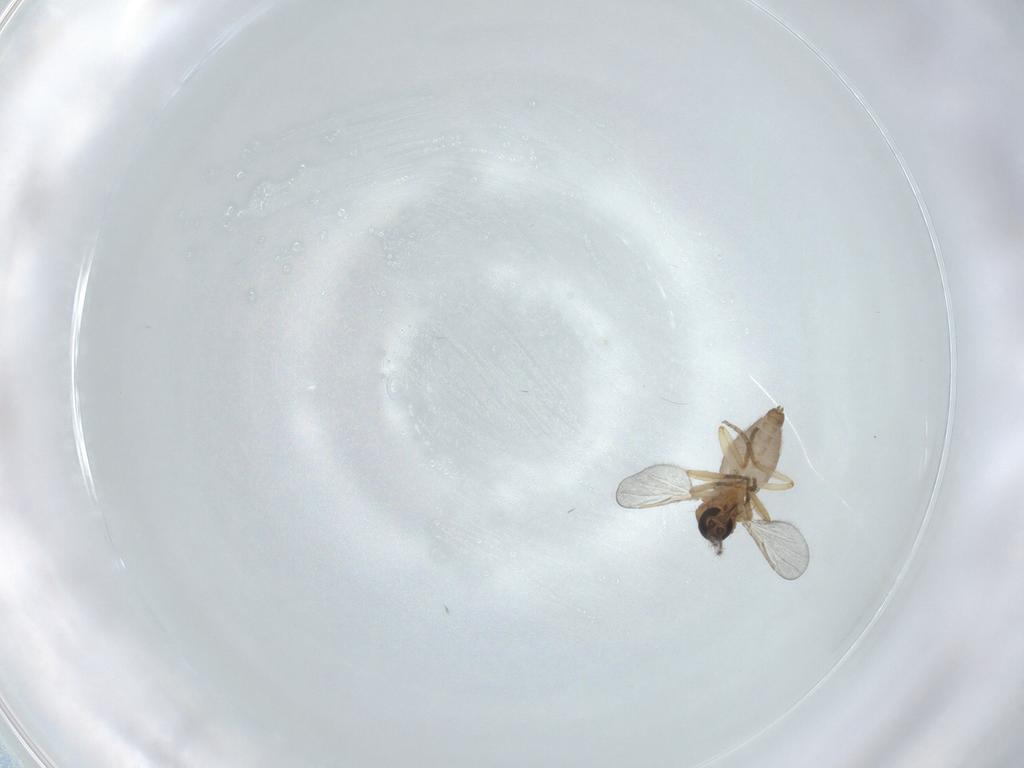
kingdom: Animalia
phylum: Arthropoda
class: Insecta
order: Diptera
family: Ceratopogonidae
